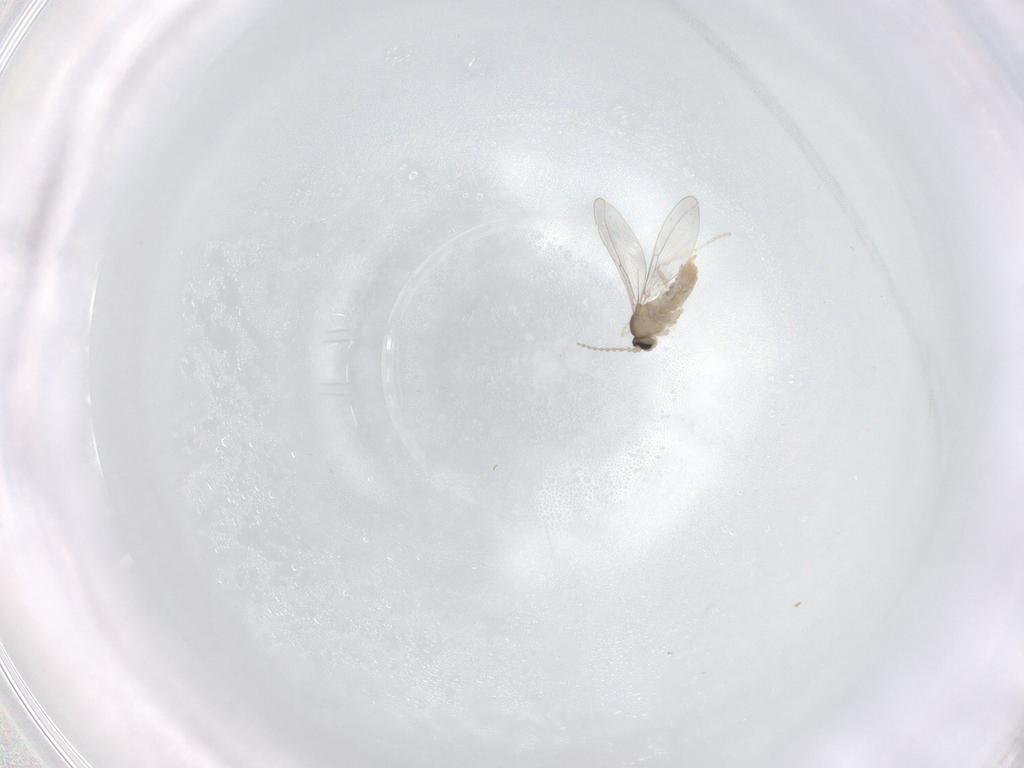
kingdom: Animalia
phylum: Arthropoda
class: Insecta
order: Diptera
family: Cecidomyiidae
